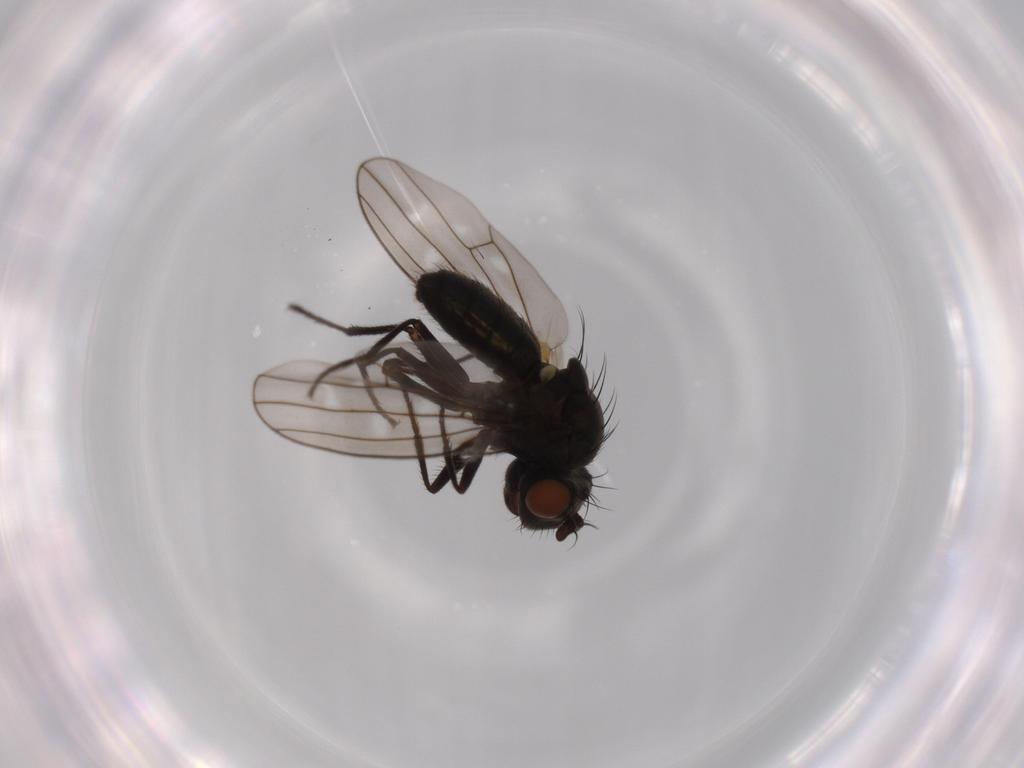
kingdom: Animalia
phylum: Arthropoda
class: Insecta
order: Diptera
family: Ephydridae
